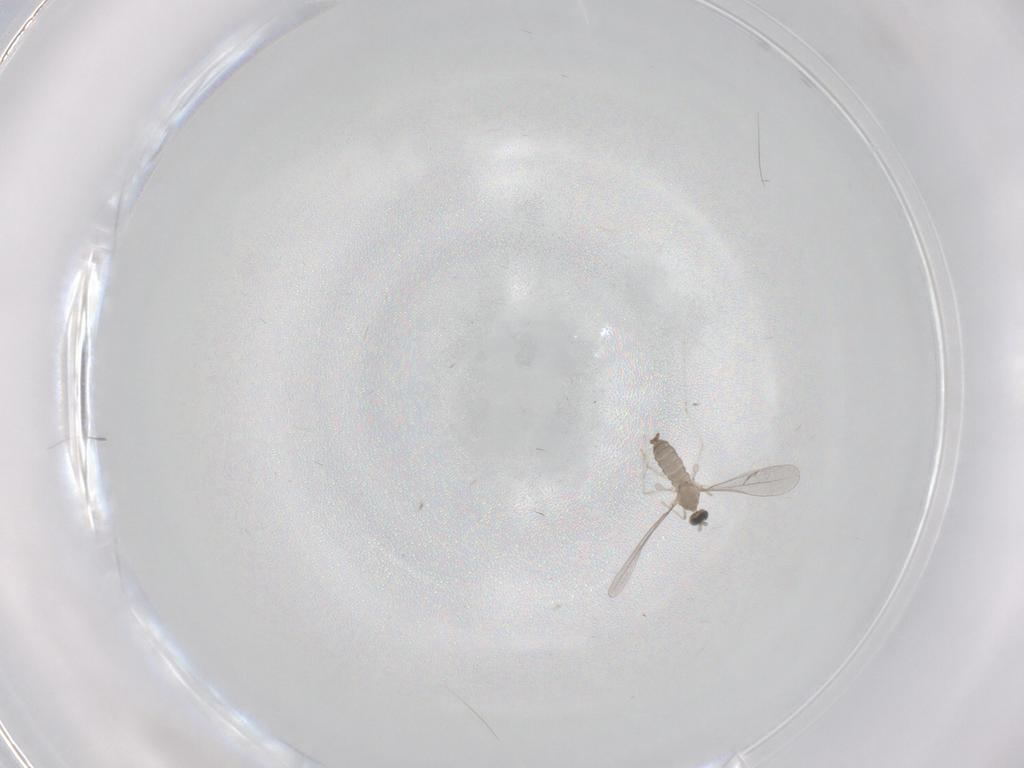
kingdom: Animalia
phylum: Arthropoda
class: Insecta
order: Diptera
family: Cecidomyiidae
